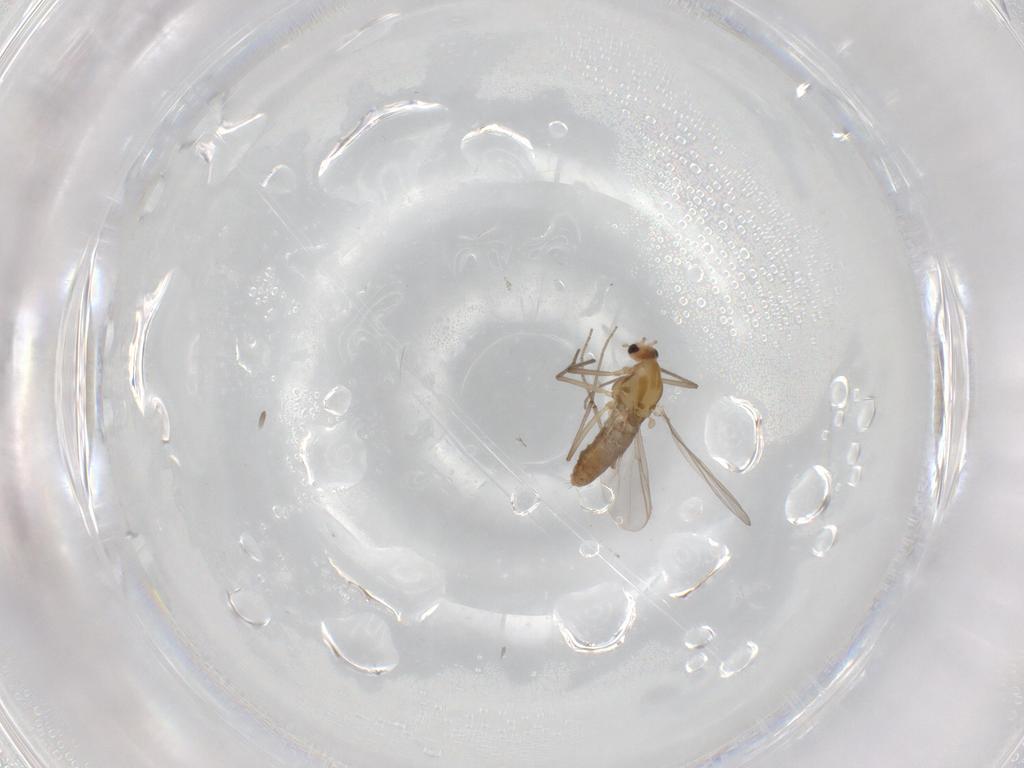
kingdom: Animalia
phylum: Arthropoda
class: Insecta
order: Diptera
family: Chironomidae
